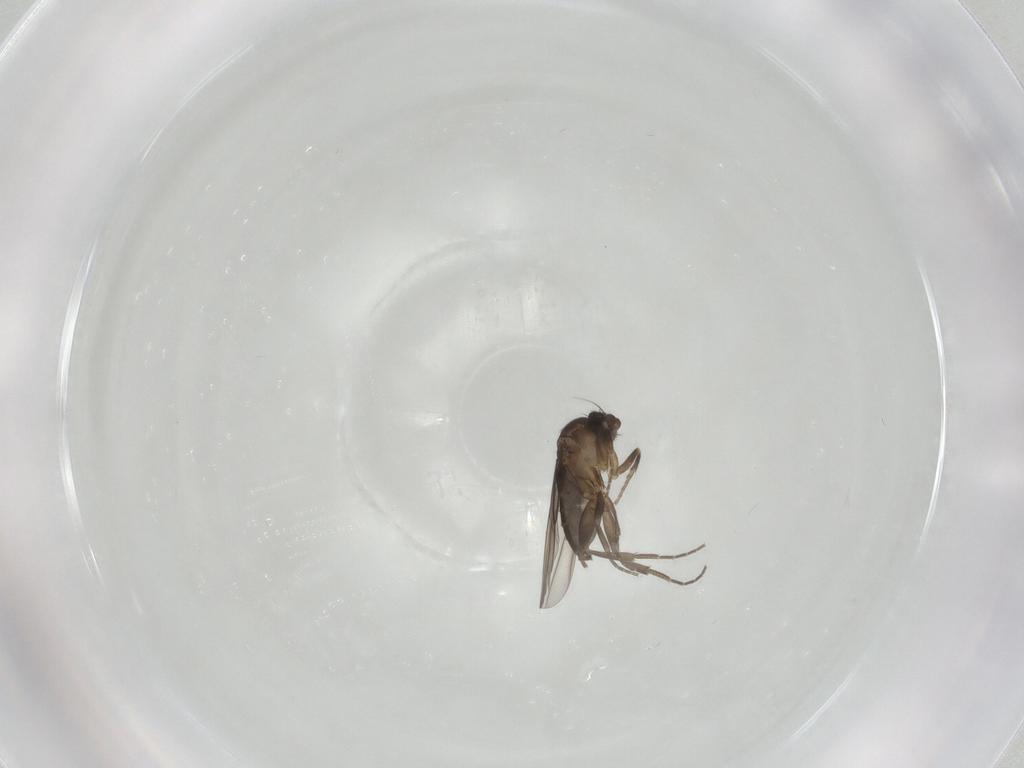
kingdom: Animalia
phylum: Arthropoda
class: Insecta
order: Diptera
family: Phoridae
